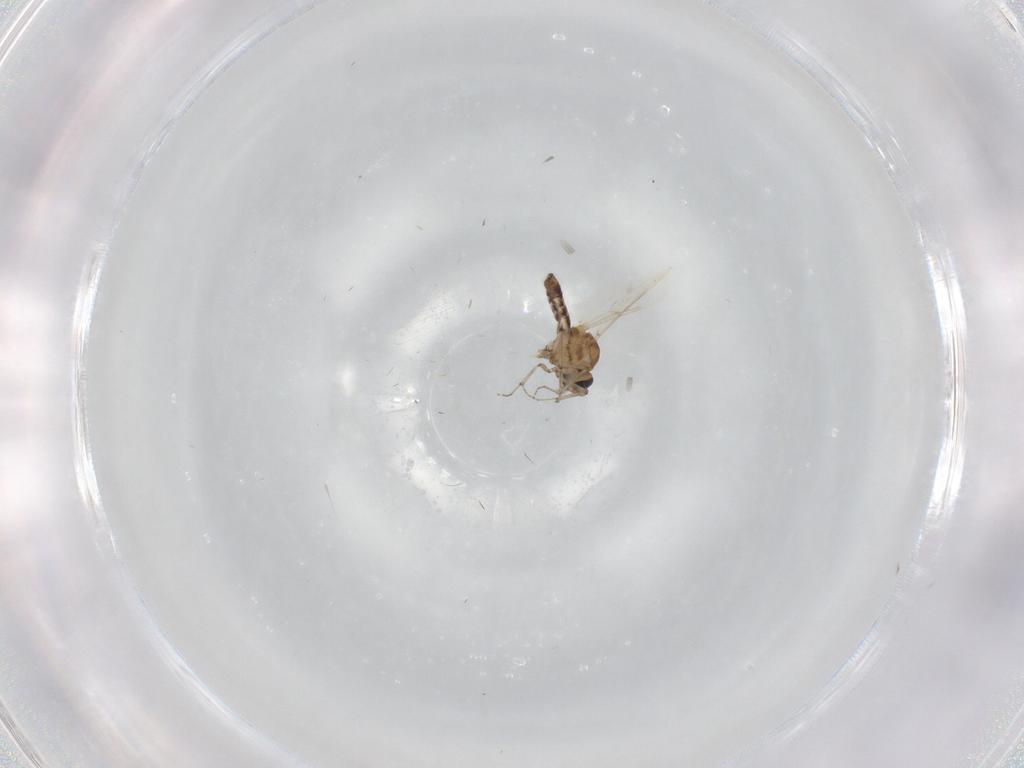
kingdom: Animalia
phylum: Arthropoda
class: Insecta
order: Diptera
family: Ceratopogonidae
